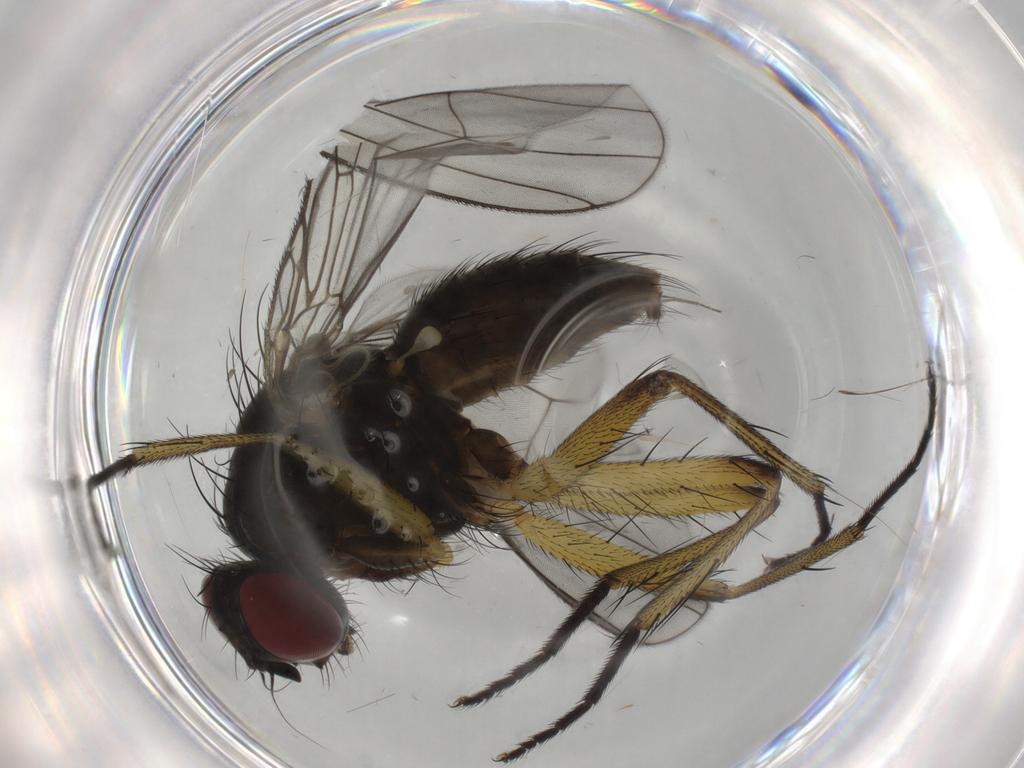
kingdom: Animalia
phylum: Arthropoda
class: Insecta
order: Diptera
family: Muscidae
